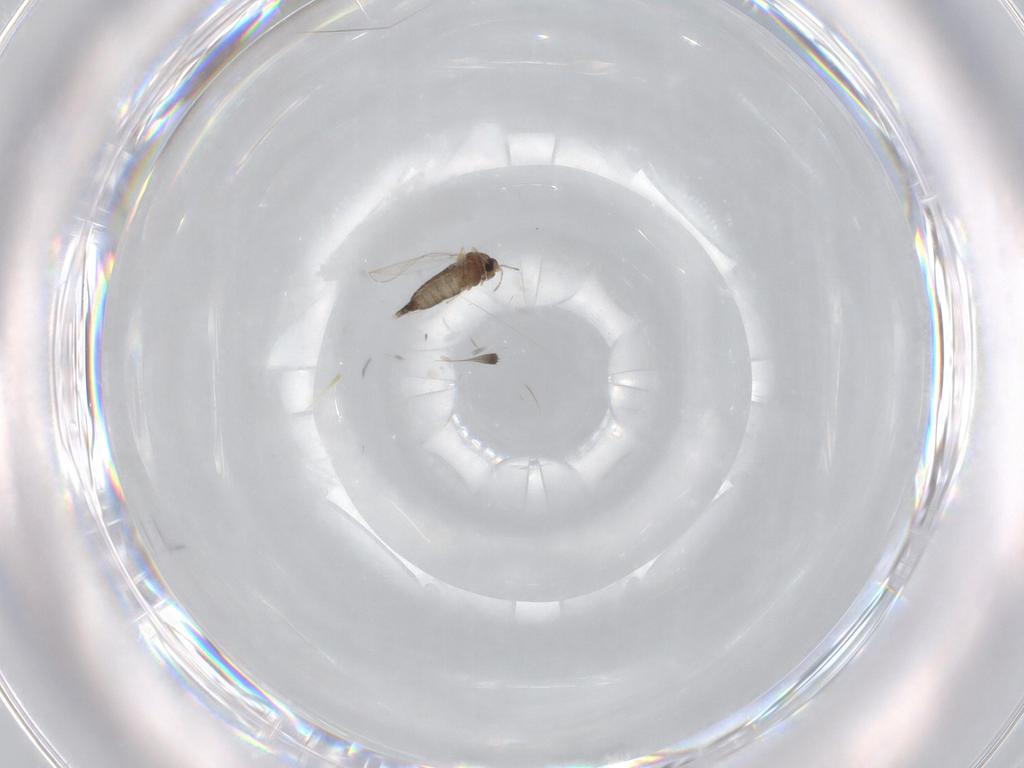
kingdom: Animalia
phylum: Arthropoda
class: Insecta
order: Diptera
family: Chironomidae
